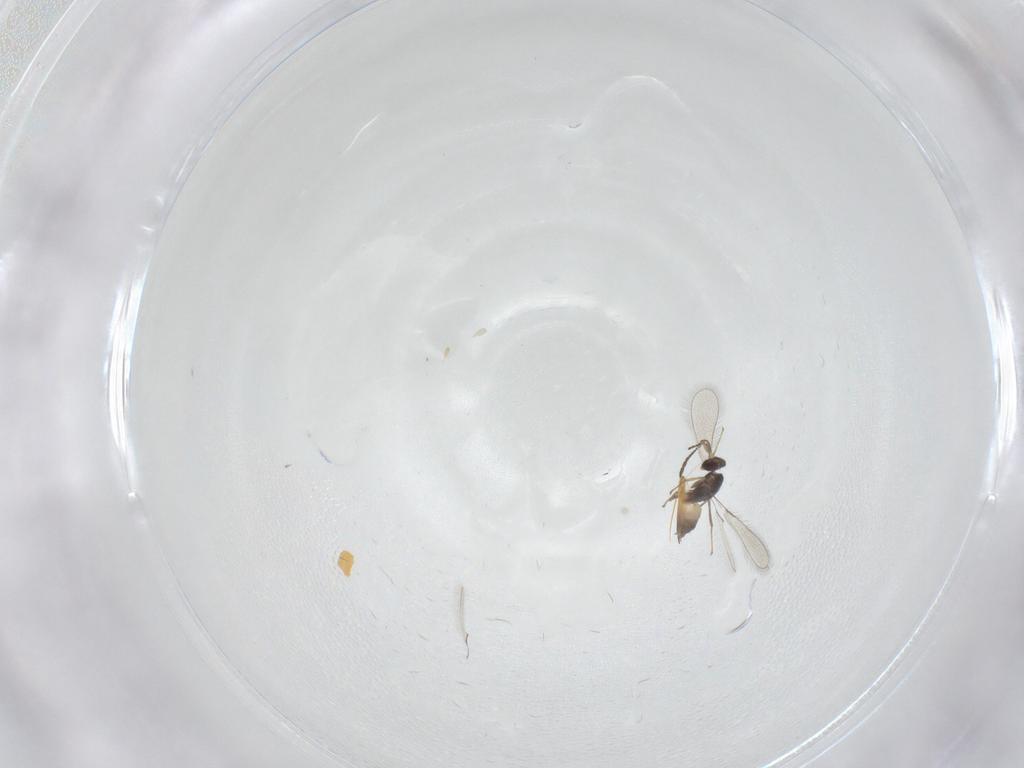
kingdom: Animalia
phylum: Arthropoda
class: Insecta
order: Hymenoptera
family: Mymaridae
